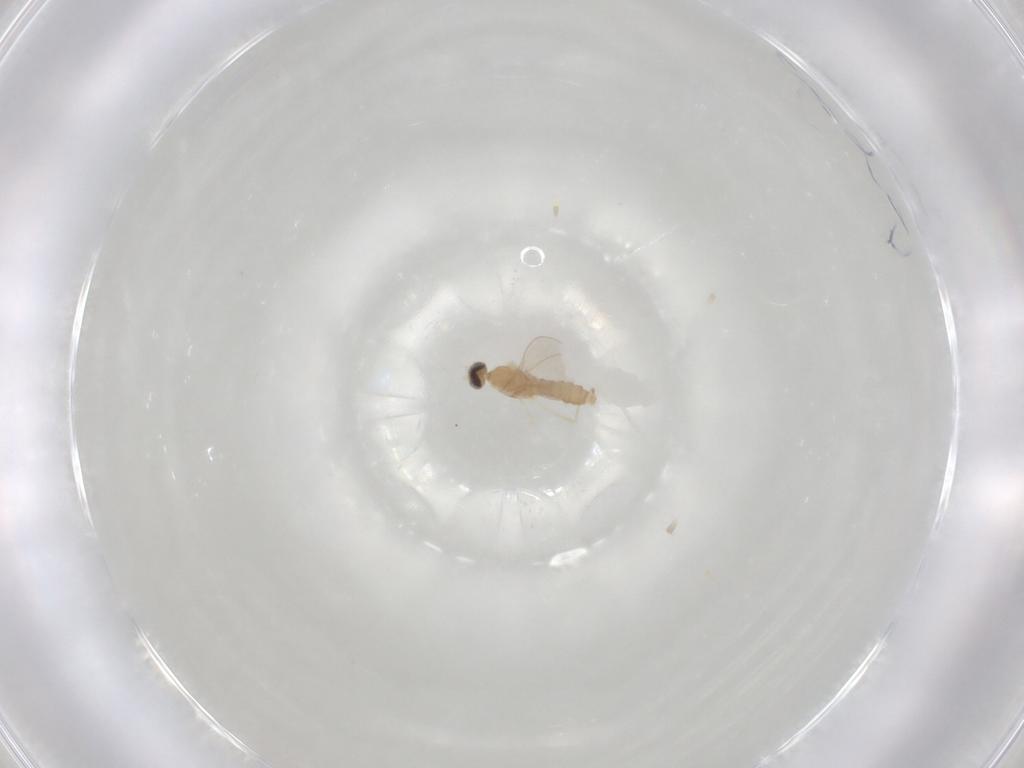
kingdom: Animalia
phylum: Arthropoda
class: Insecta
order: Diptera
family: Cecidomyiidae
